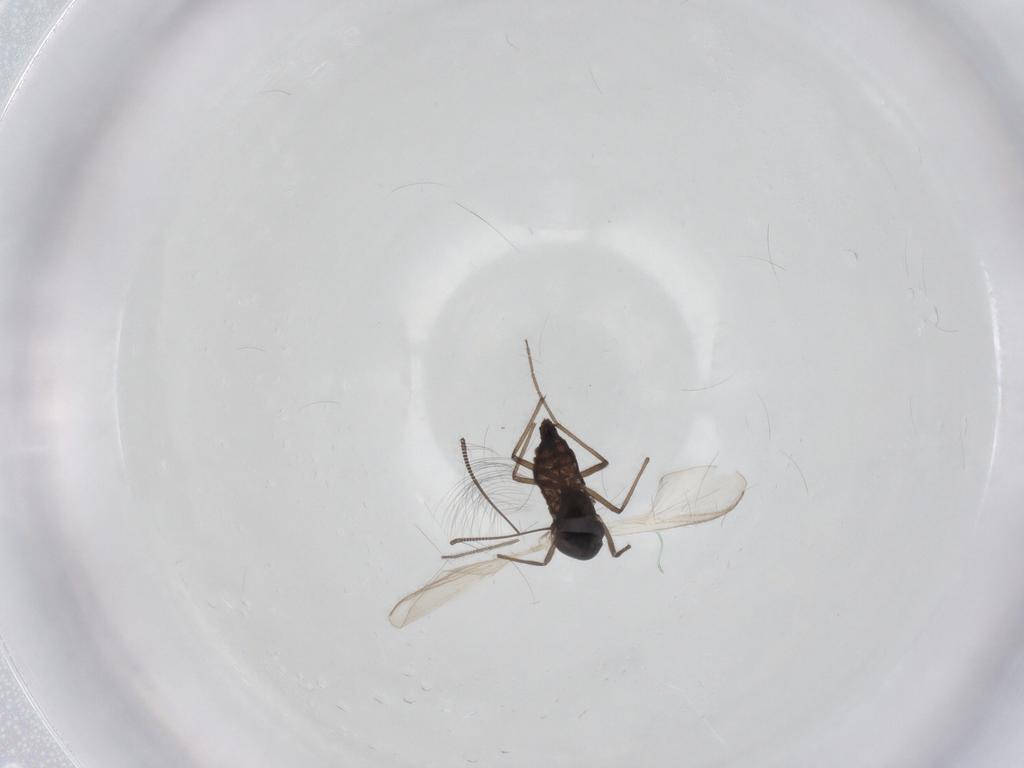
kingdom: Animalia
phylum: Arthropoda
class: Insecta
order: Diptera
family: Chironomidae
